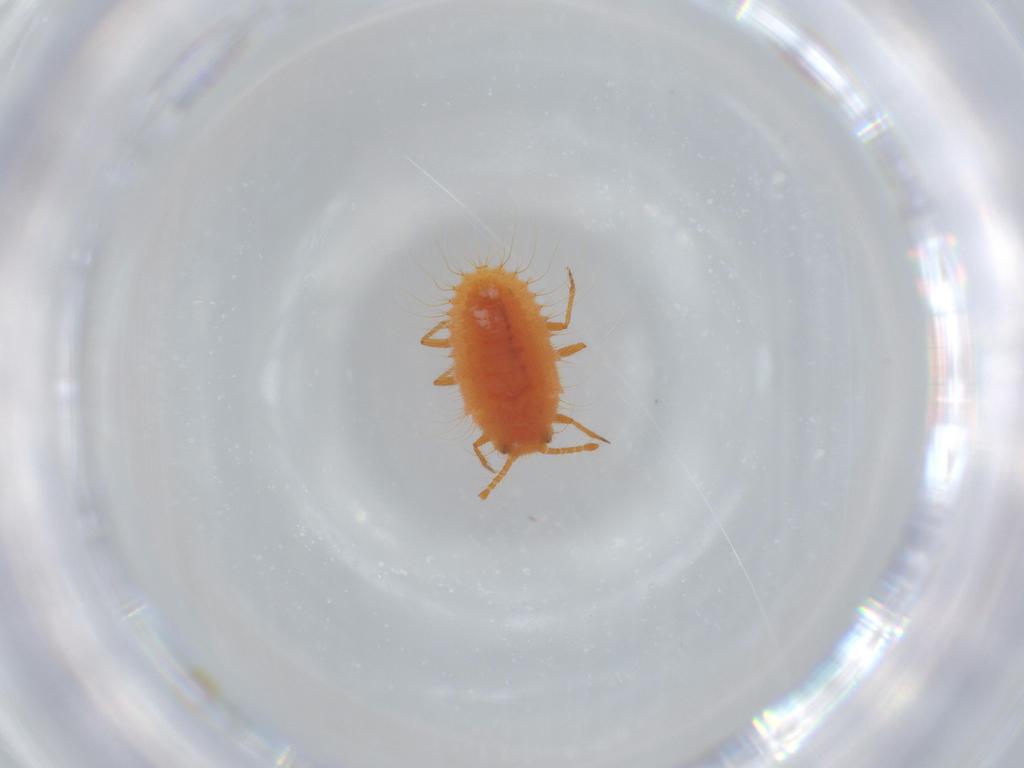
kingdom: Animalia
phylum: Arthropoda
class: Insecta
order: Hemiptera
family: Coccoidea_incertae_sedis
